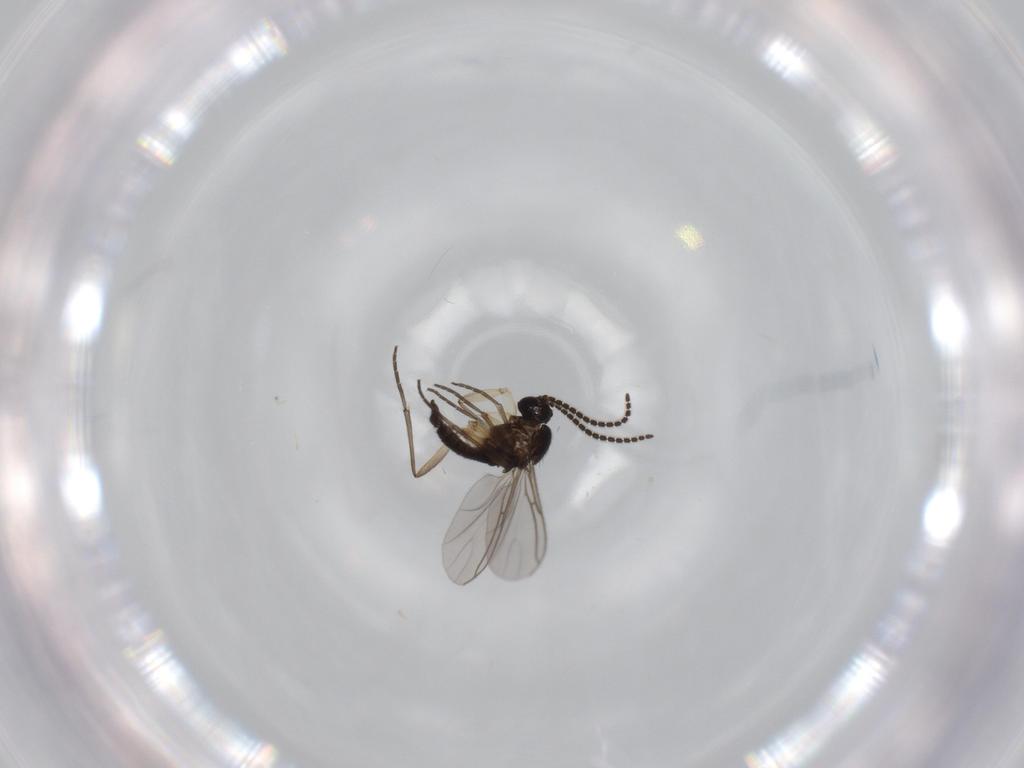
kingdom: Animalia
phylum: Arthropoda
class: Insecta
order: Diptera
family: Sciaridae
